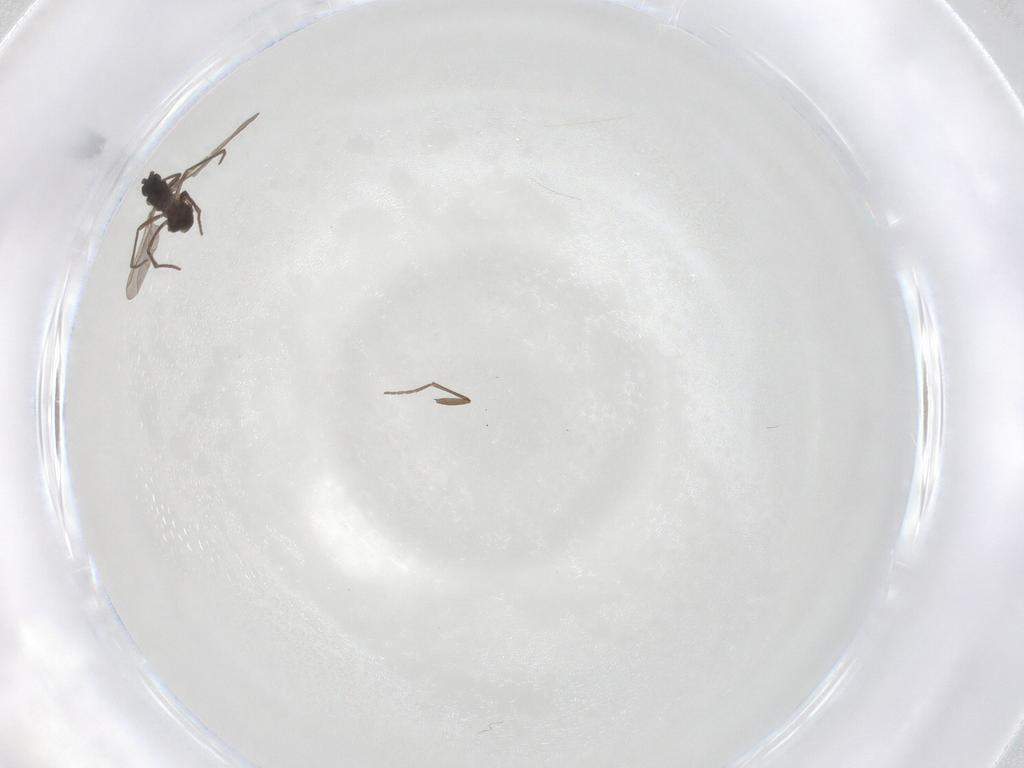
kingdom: Animalia
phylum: Arthropoda
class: Insecta
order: Diptera
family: Sciaridae
